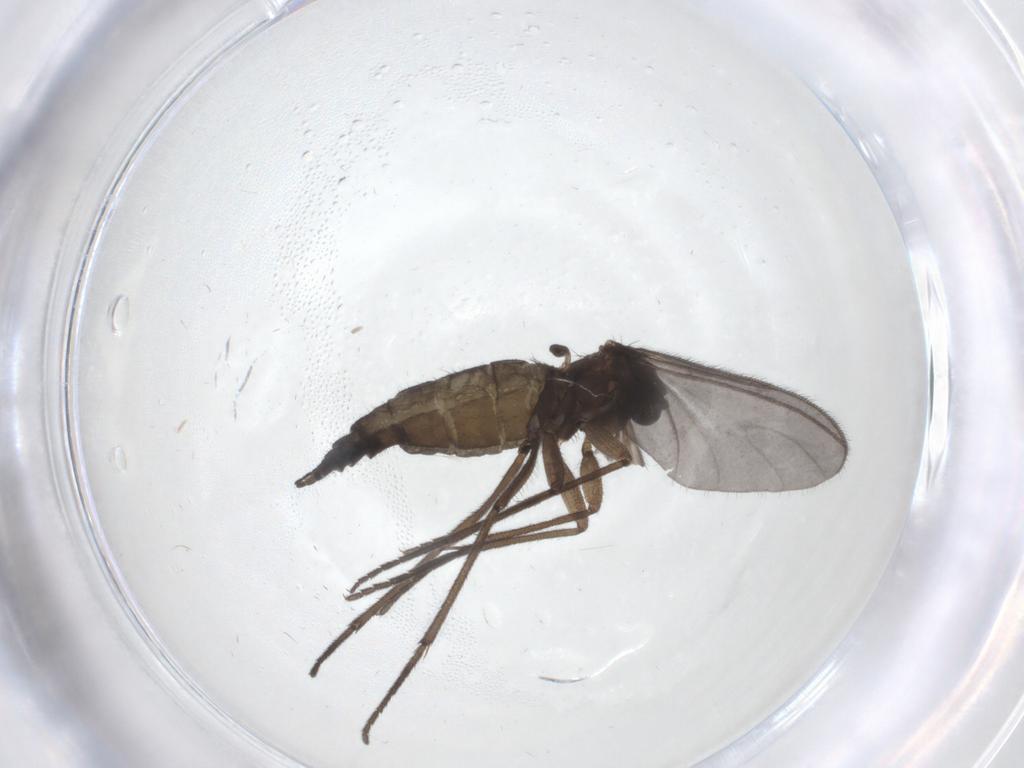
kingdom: Animalia
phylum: Arthropoda
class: Insecta
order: Diptera
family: Sciaridae
